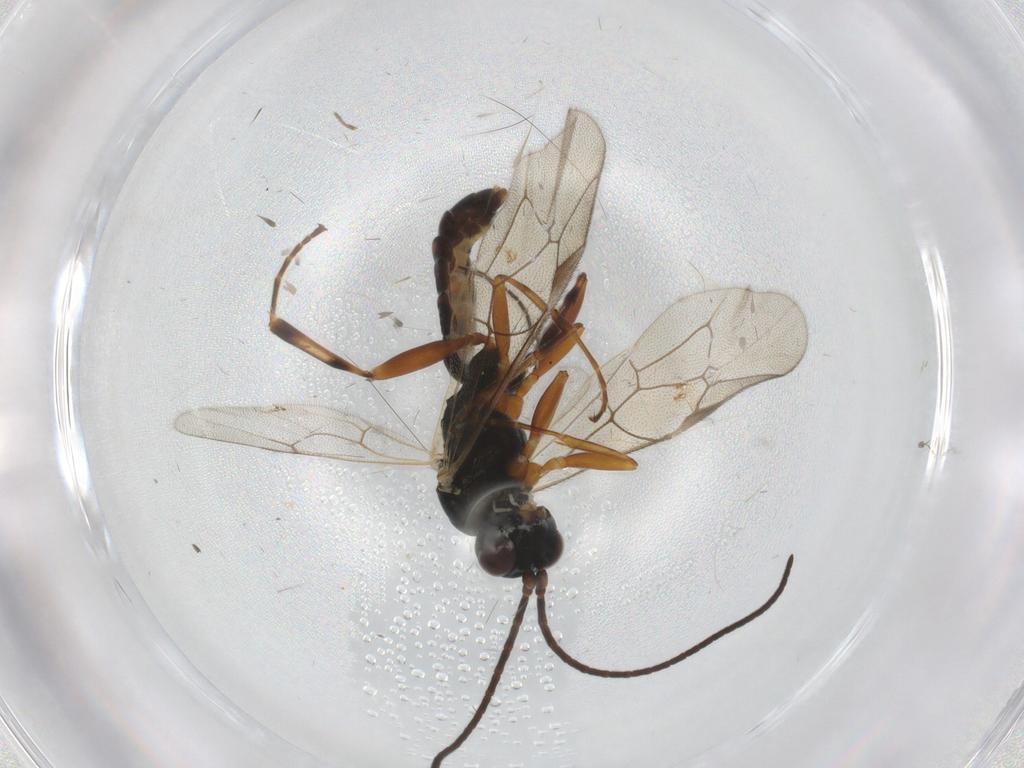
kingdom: Animalia
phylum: Arthropoda
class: Insecta
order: Hymenoptera
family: Ichneumonidae
